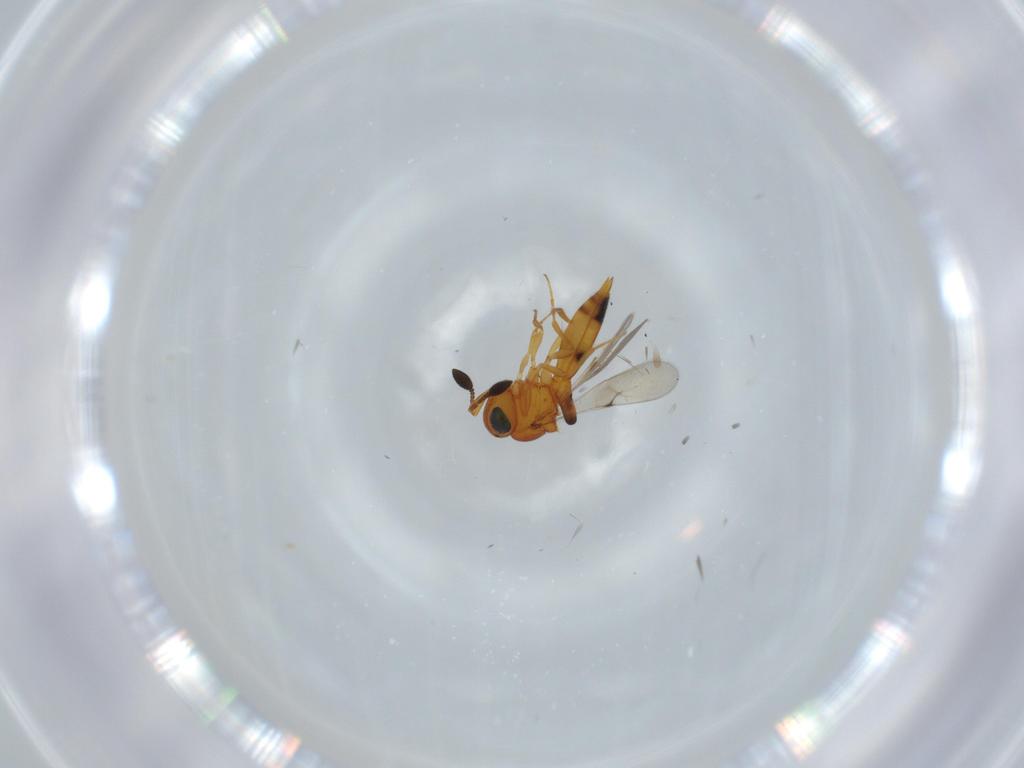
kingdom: Animalia
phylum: Arthropoda
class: Insecta
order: Hymenoptera
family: Scelionidae
